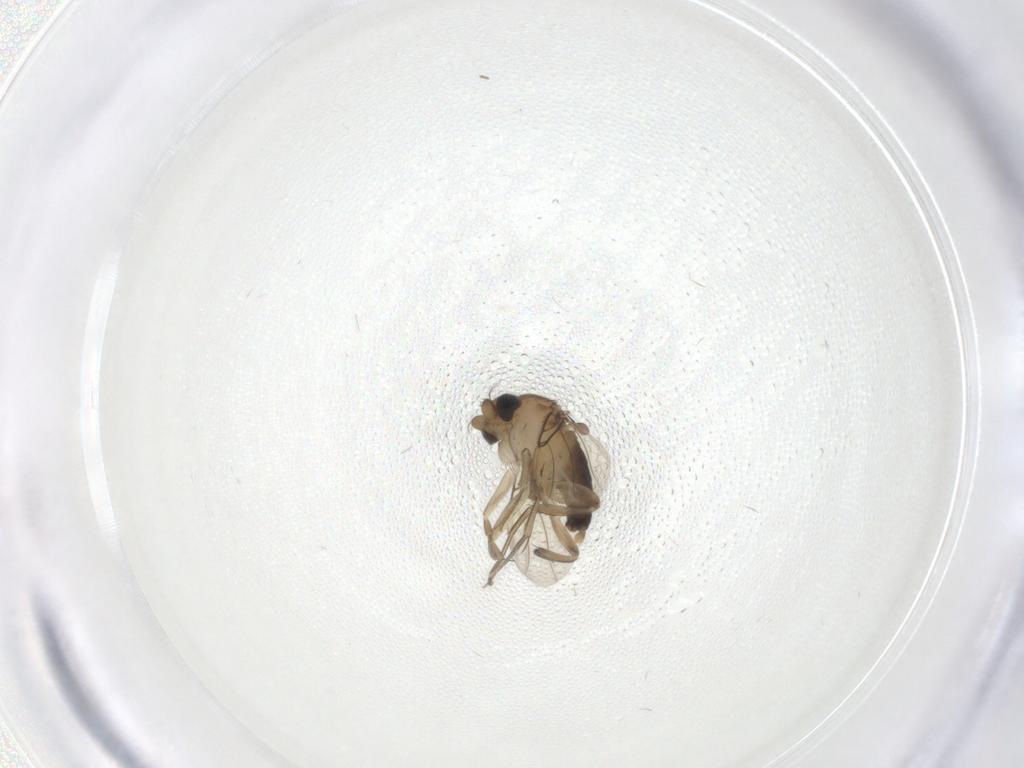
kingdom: Animalia
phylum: Arthropoda
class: Insecta
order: Diptera
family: Phoridae
